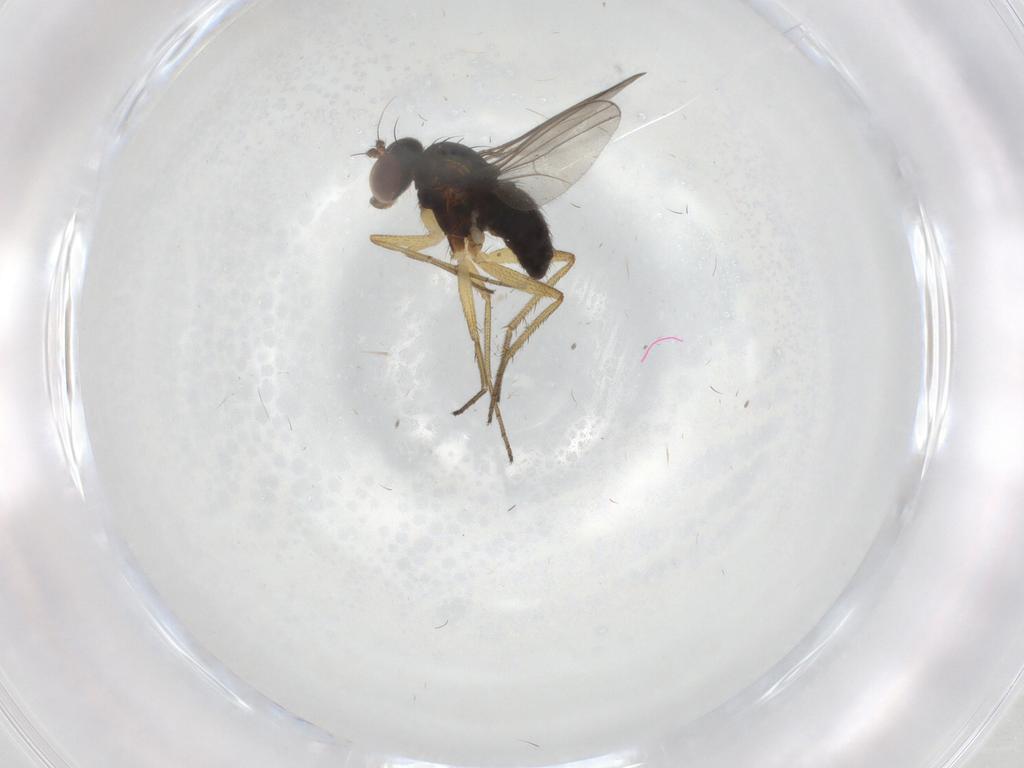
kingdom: Animalia
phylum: Arthropoda
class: Insecta
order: Diptera
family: Dolichopodidae
